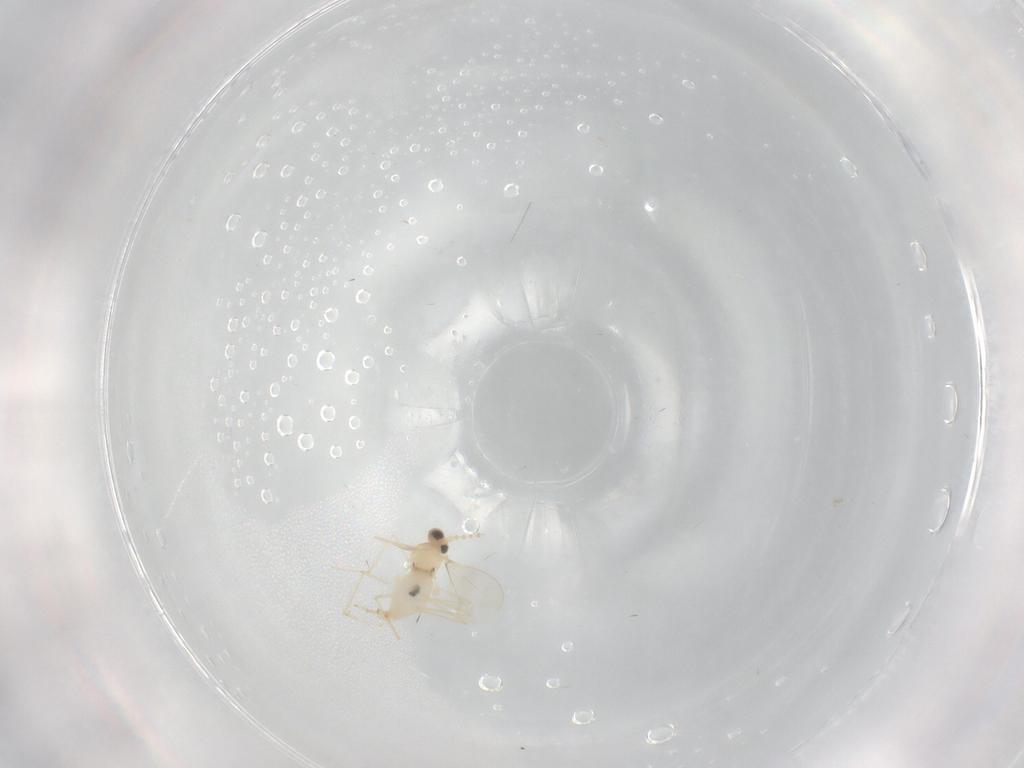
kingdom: Animalia
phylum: Arthropoda
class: Insecta
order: Diptera
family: Cecidomyiidae
